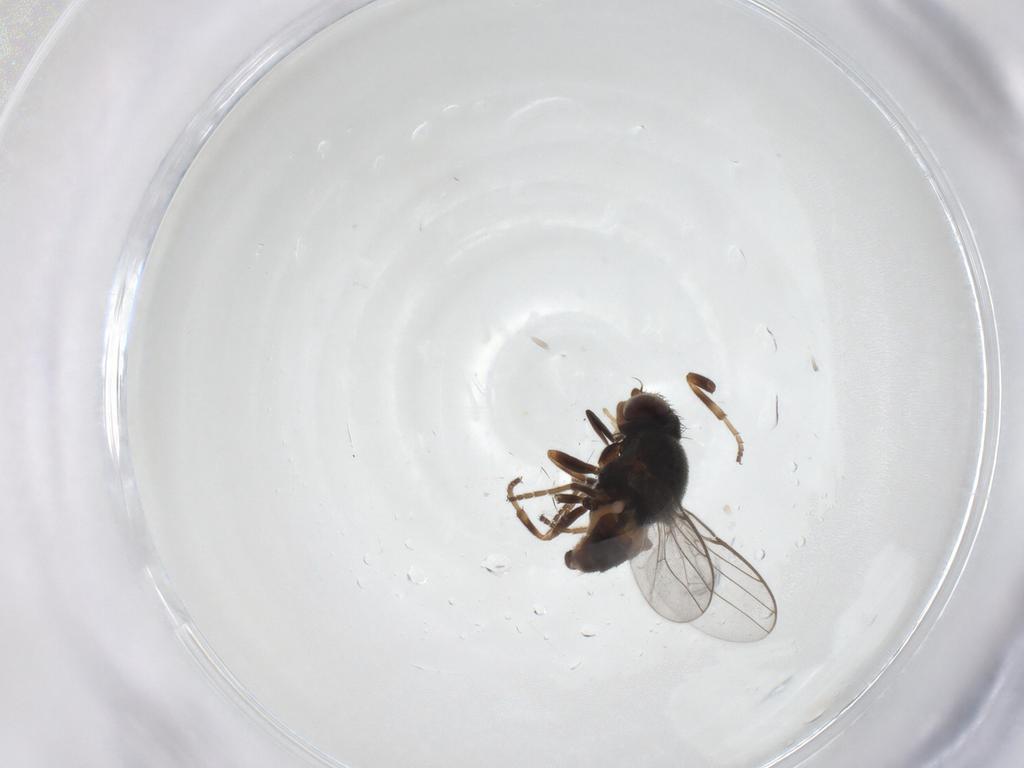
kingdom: Animalia
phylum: Arthropoda
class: Insecta
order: Diptera
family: Chloropidae
